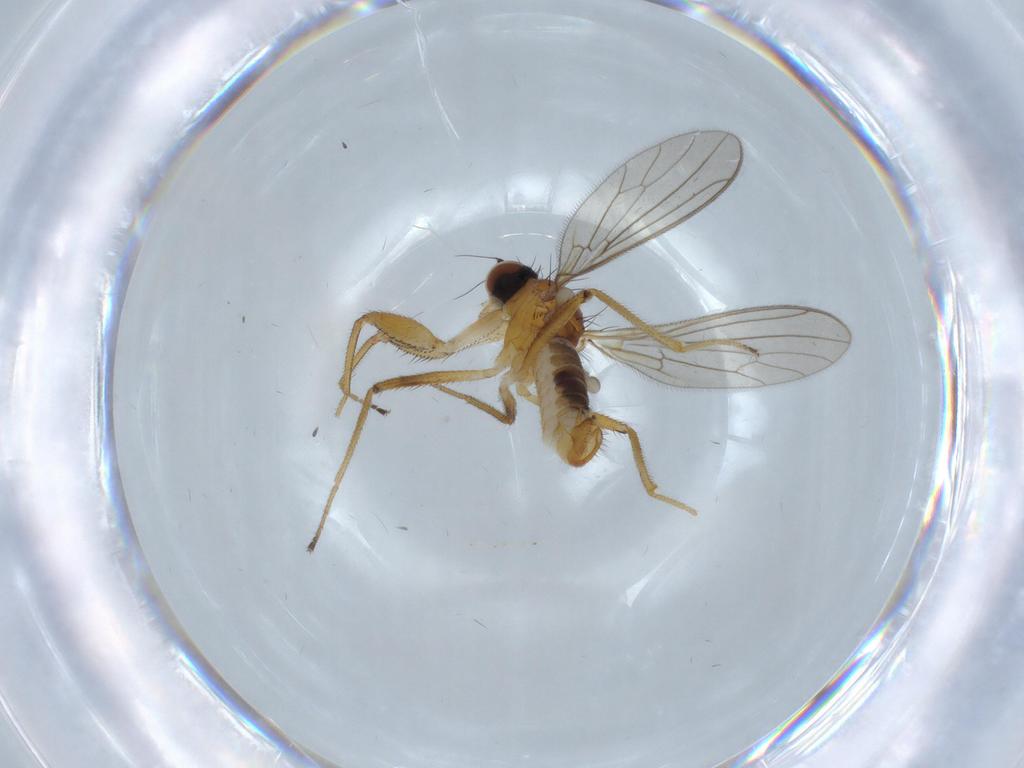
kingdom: Animalia
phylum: Arthropoda
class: Insecta
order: Diptera
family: Empididae
